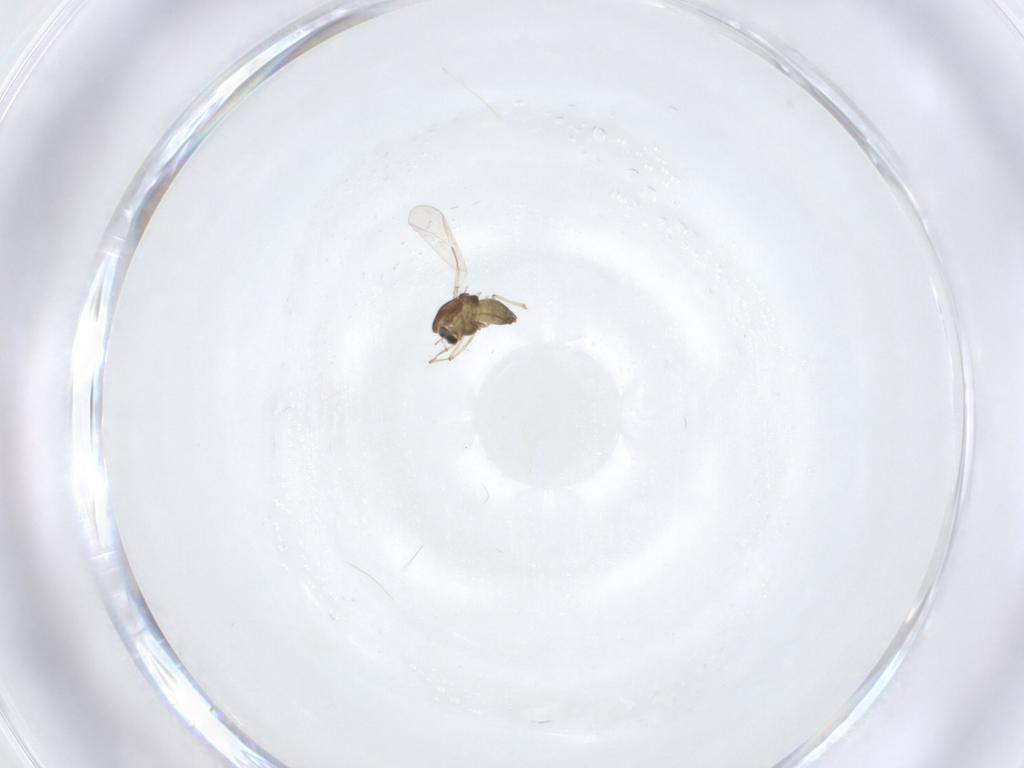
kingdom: Animalia
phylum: Arthropoda
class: Insecta
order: Diptera
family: Chironomidae
